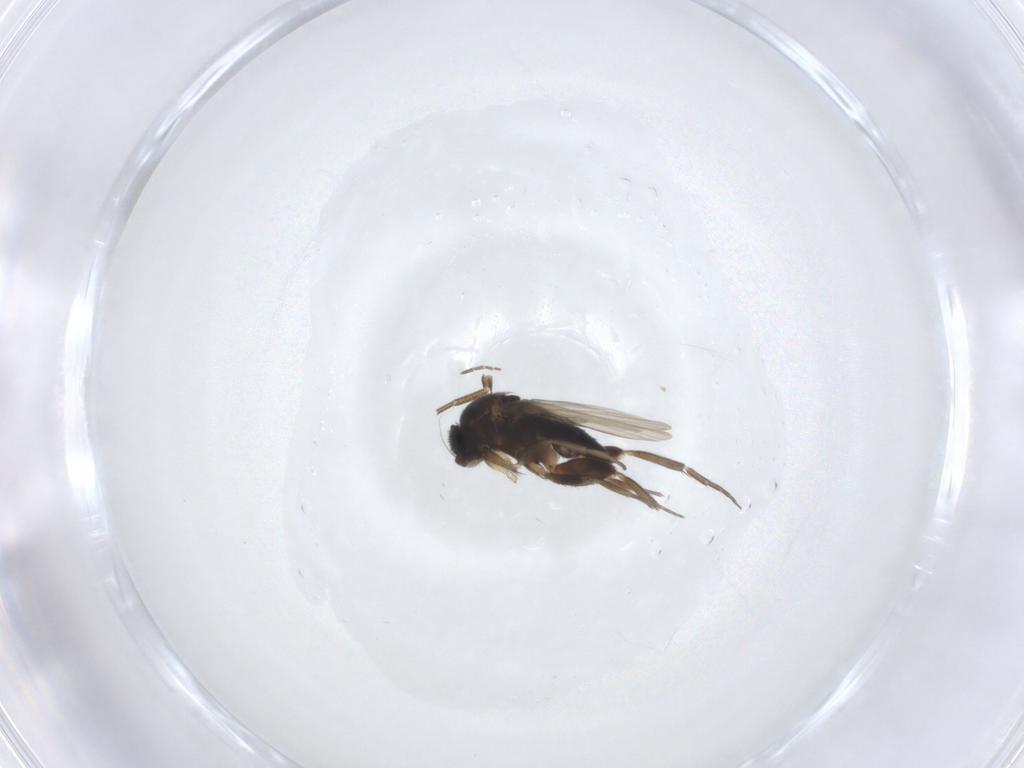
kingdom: Animalia
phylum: Arthropoda
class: Insecta
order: Diptera
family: Phoridae
